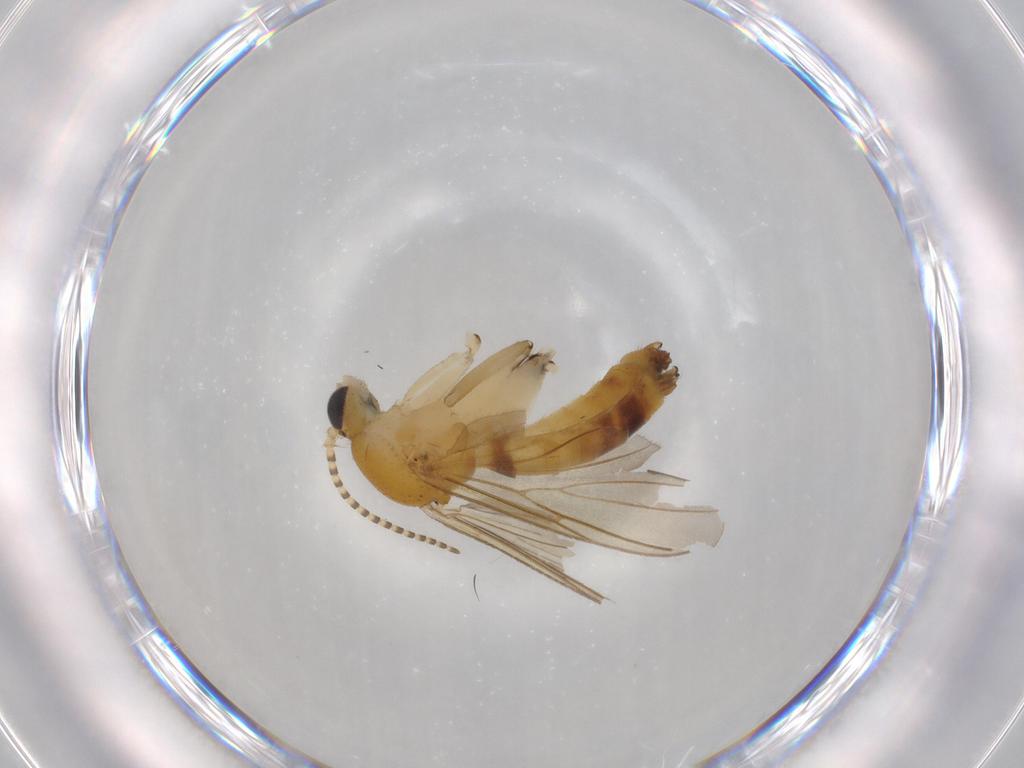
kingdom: Animalia
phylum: Arthropoda
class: Insecta
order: Diptera
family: Mycetophilidae
